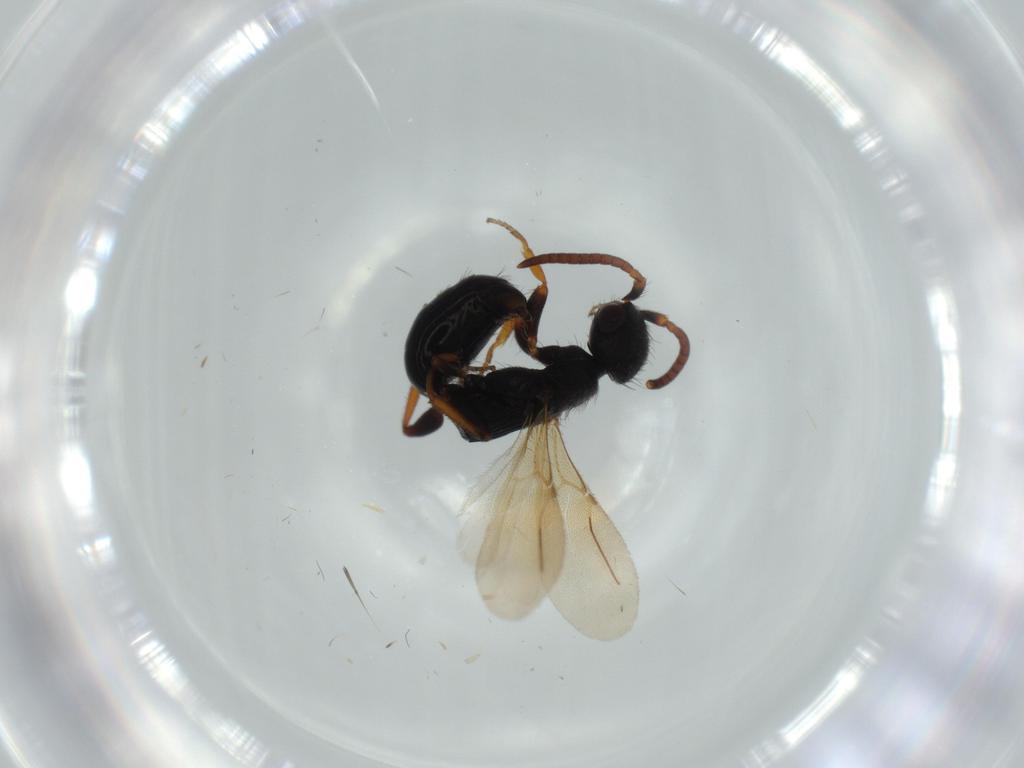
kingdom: Animalia
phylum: Arthropoda
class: Insecta
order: Hymenoptera
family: Bethylidae
